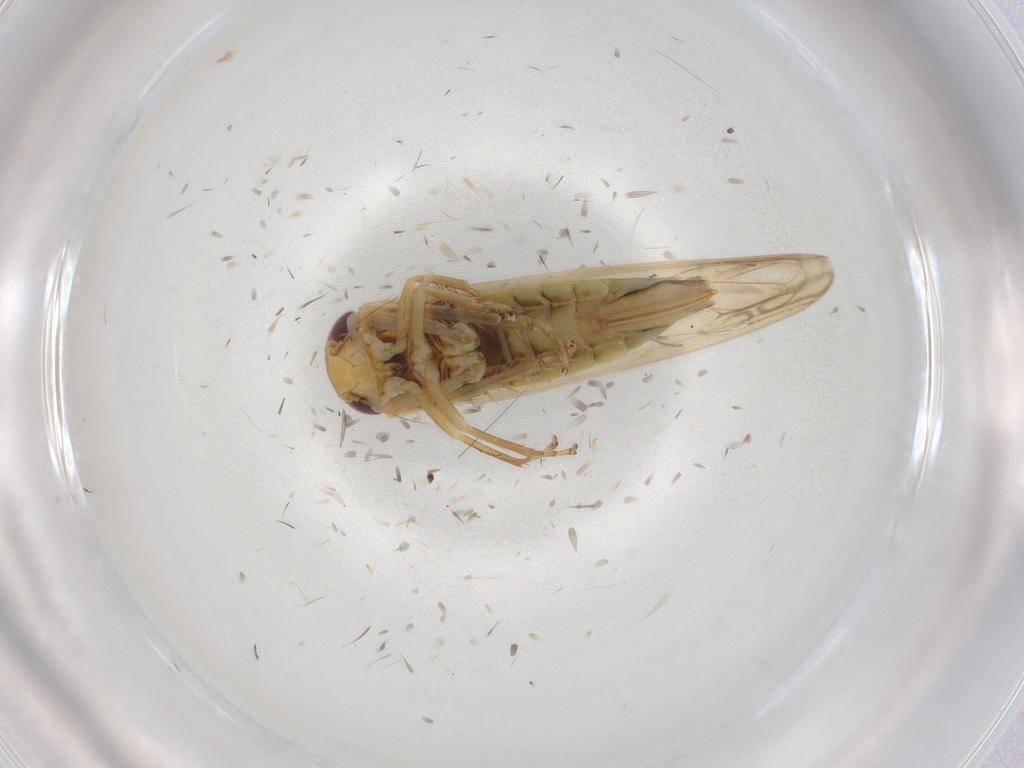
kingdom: Animalia
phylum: Arthropoda
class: Insecta
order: Hemiptera
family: Cicadellidae
